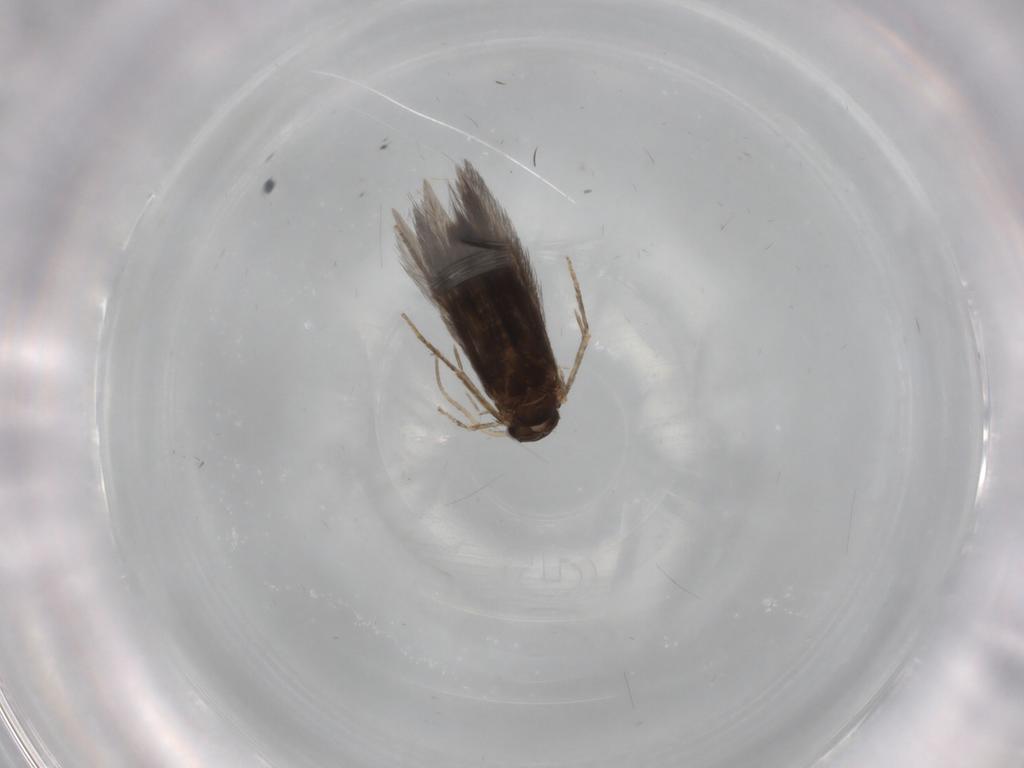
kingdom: Animalia
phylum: Arthropoda
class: Insecta
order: Trichoptera
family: Hydroptilidae
